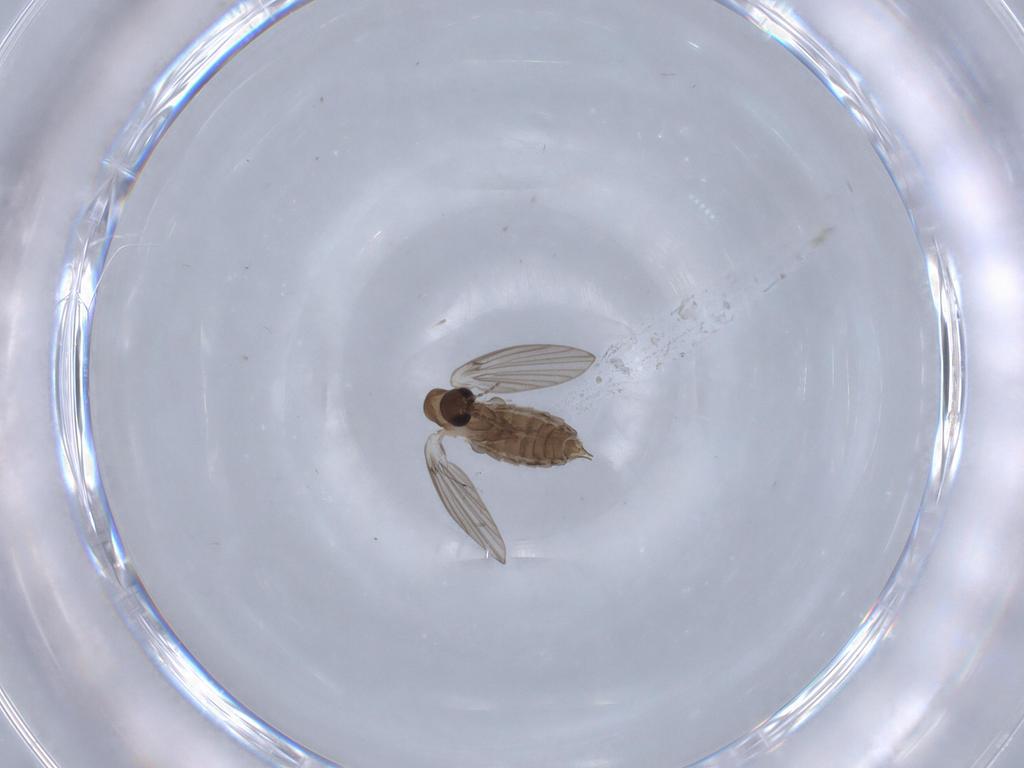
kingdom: Animalia
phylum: Arthropoda
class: Insecta
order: Diptera
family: Psychodidae
